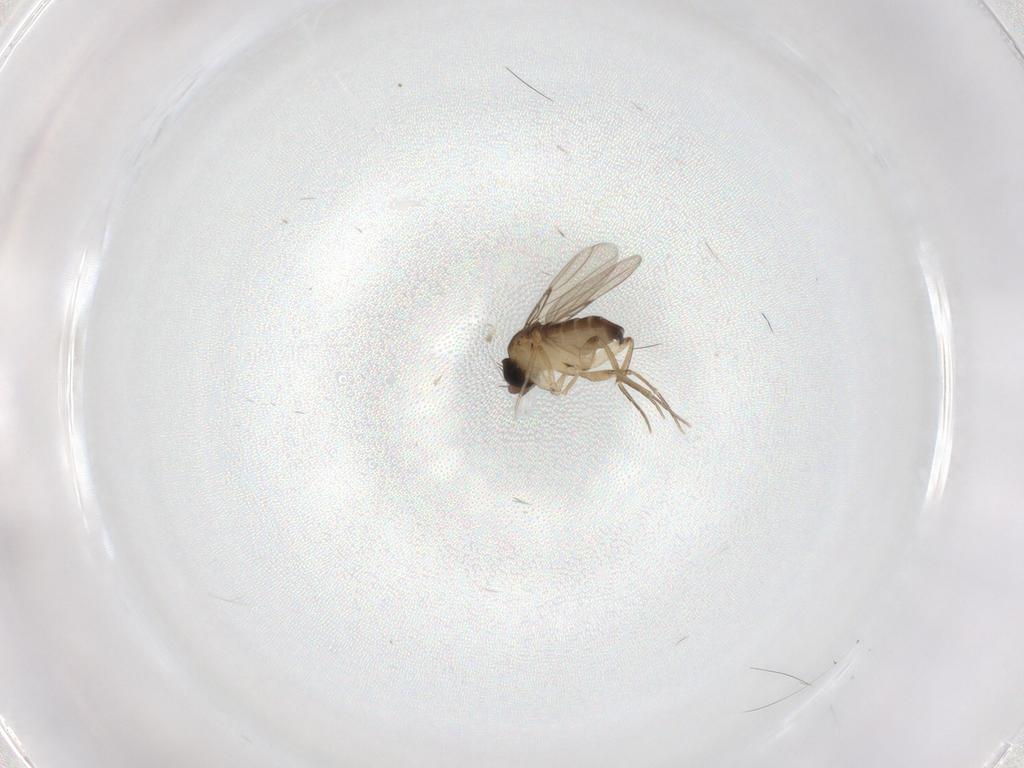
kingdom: Animalia
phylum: Arthropoda
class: Insecta
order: Diptera
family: Phoridae
